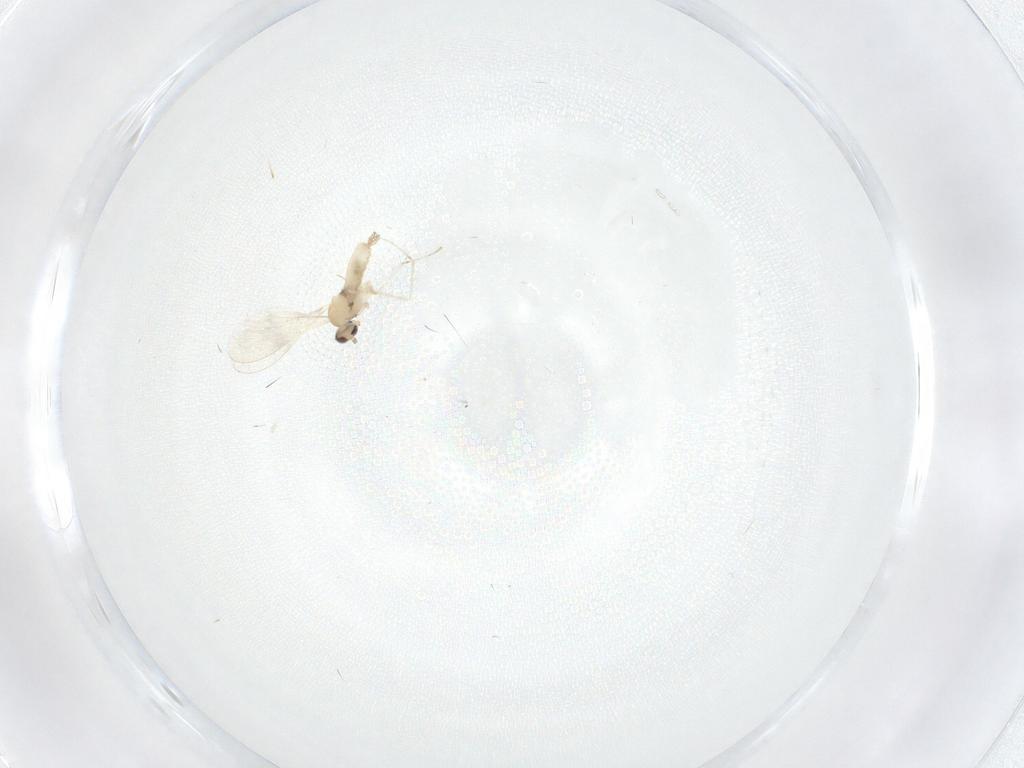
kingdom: Animalia
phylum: Arthropoda
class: Insecta
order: Diptera
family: Cecidomyiidae
